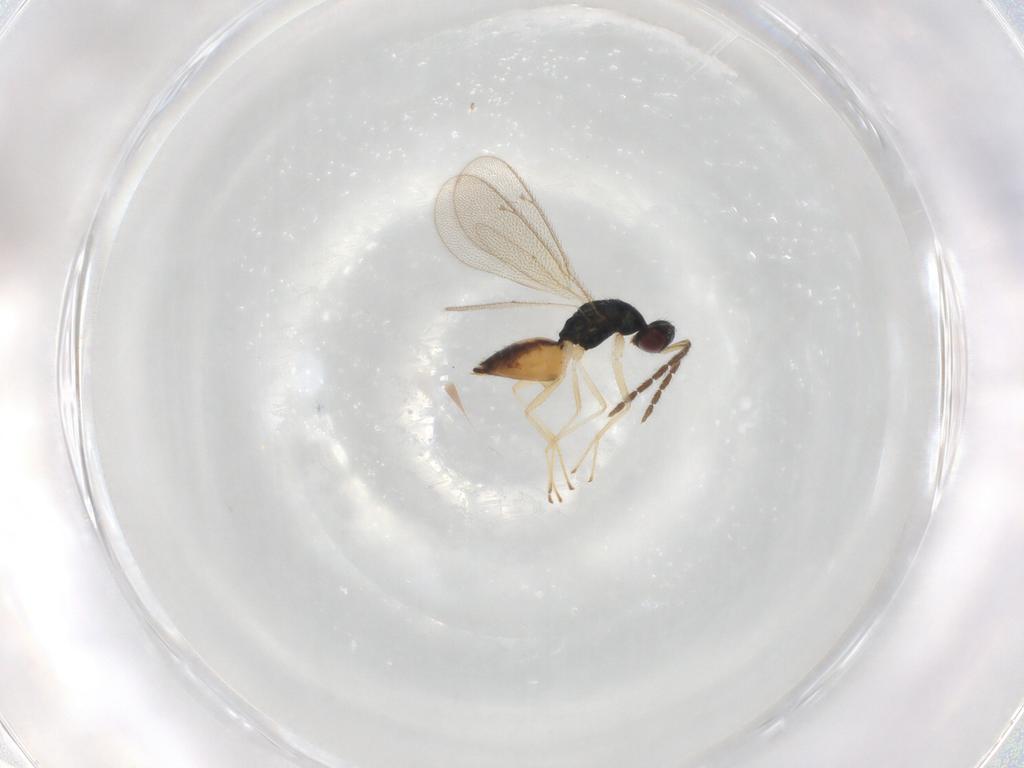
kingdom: Animalia
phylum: Arthropoda
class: Insecta
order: Hymenoptera
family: Eulophidae
